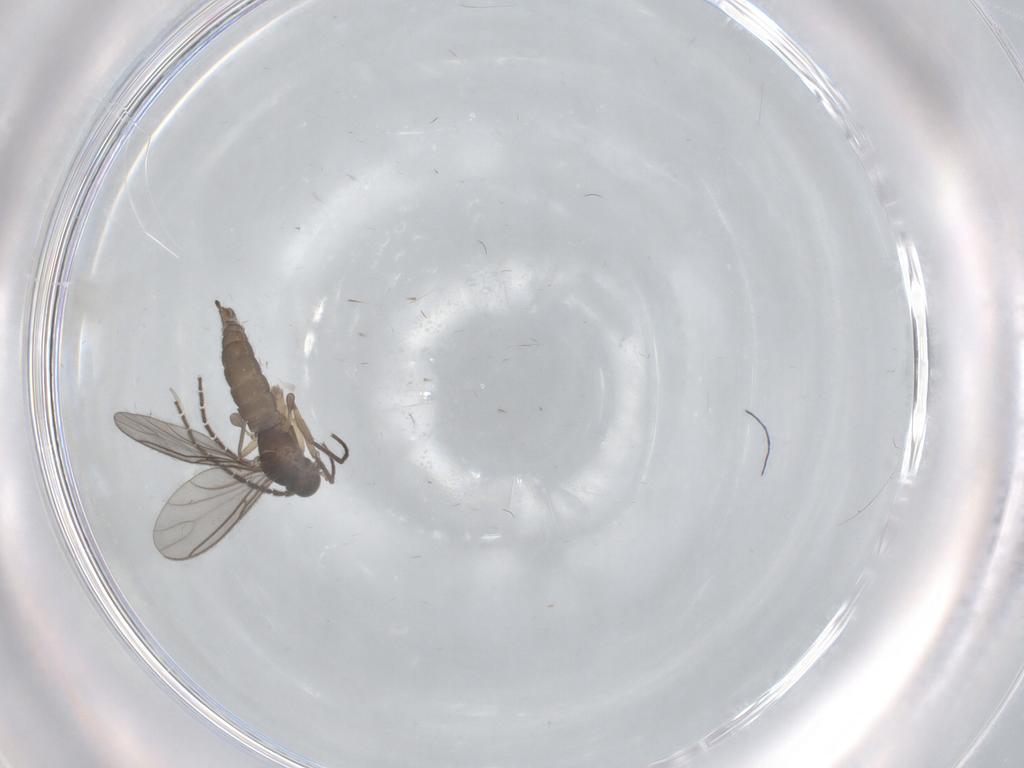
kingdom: Animalia
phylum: Arthropoda
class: Insecta
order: Diptera
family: Sciaridae
